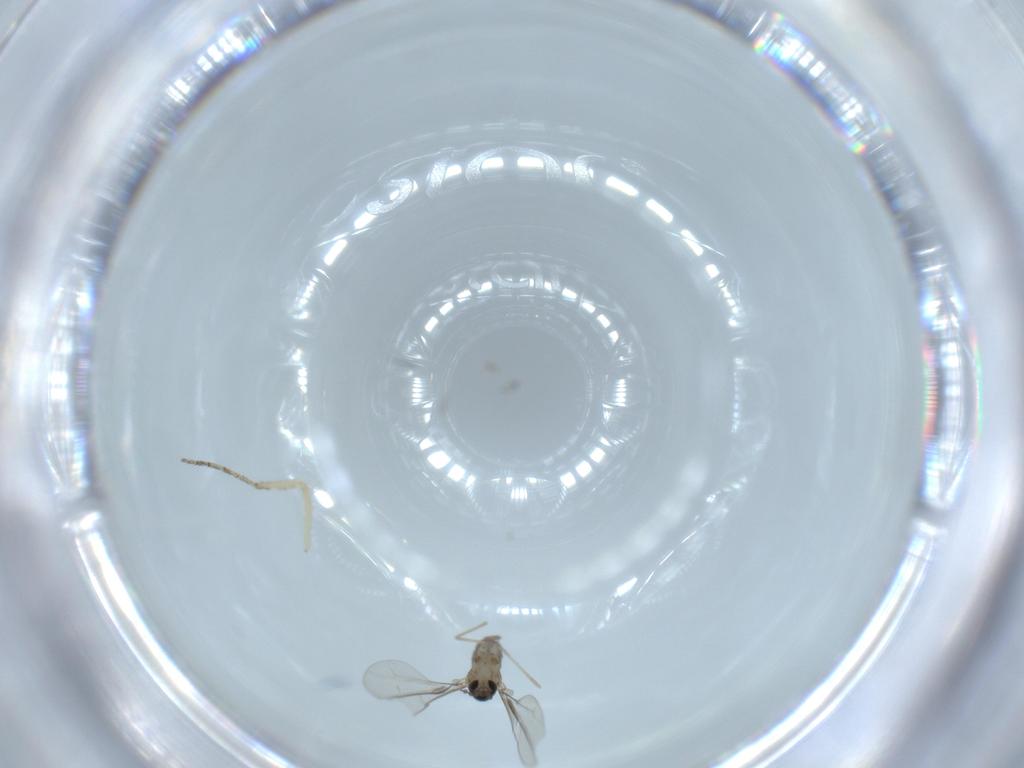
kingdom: Animalia
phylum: Arthropoda
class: Insecta
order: Diptera
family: Cecidomyiidae
